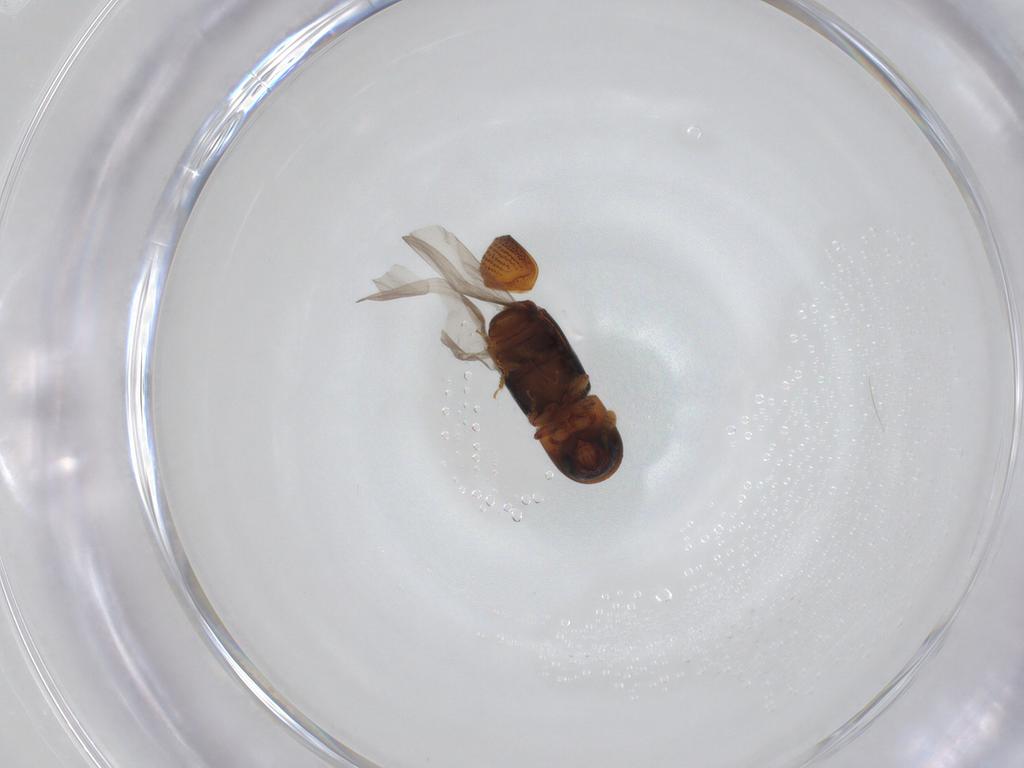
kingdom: Animalia
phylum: Arthropoda
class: Insecta
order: Coleoptera
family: Curculionidae
